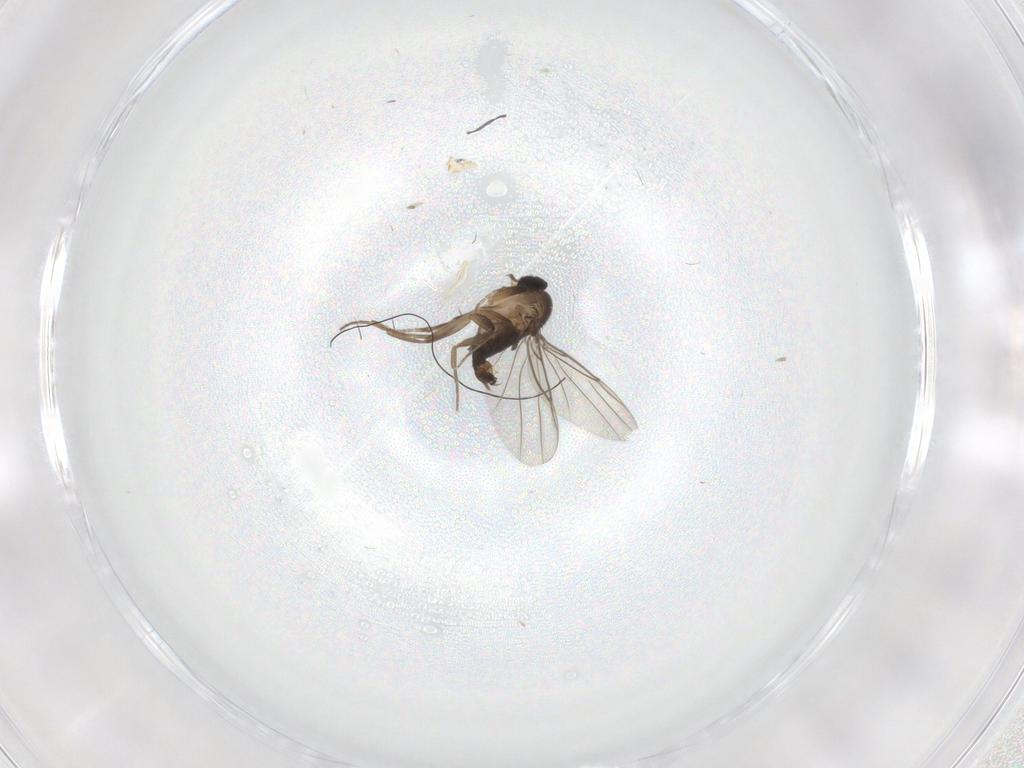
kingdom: Animalia
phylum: Arthropoda
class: Insecta
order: Diptera
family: Phoridae
